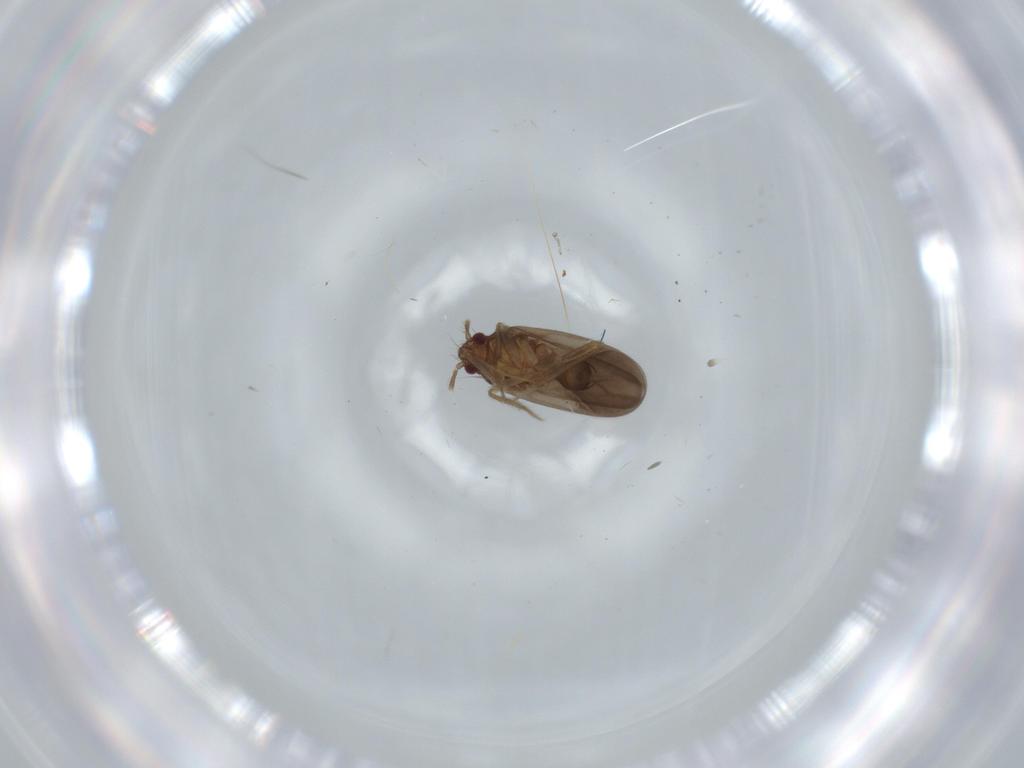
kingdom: Animalia
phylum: Arthropoda
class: Insecta
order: Hemiptera
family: Ceratocombidae
